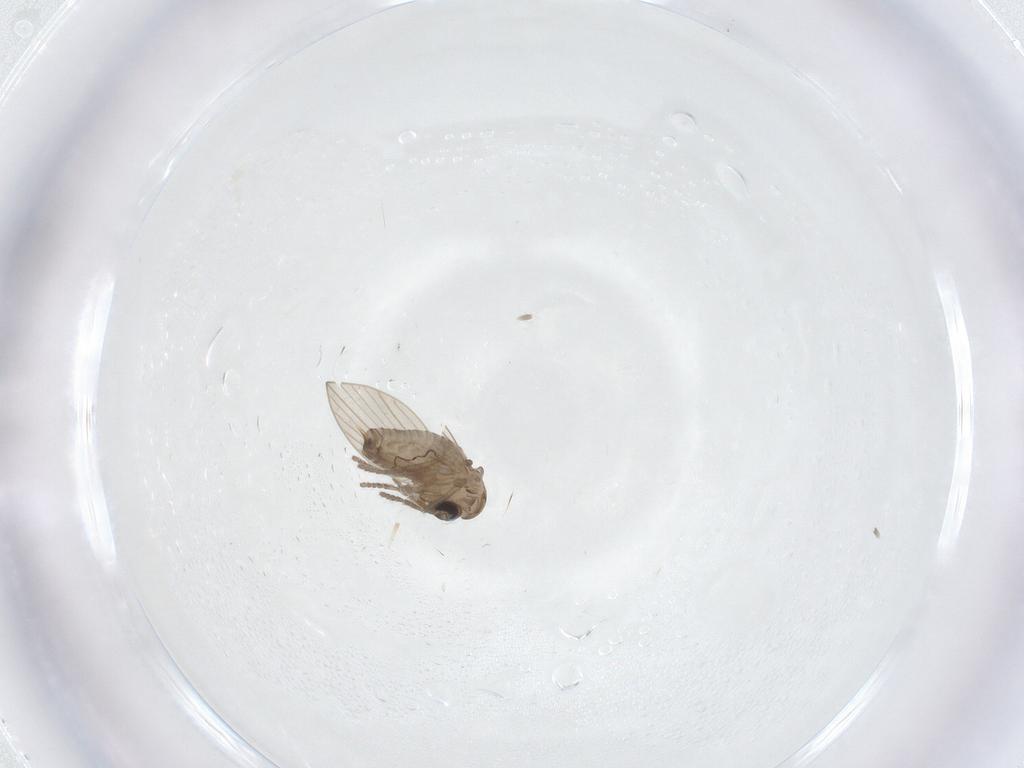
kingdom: Animalia
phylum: Arthropoda
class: Insecta
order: Diptera
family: Psychodidae
